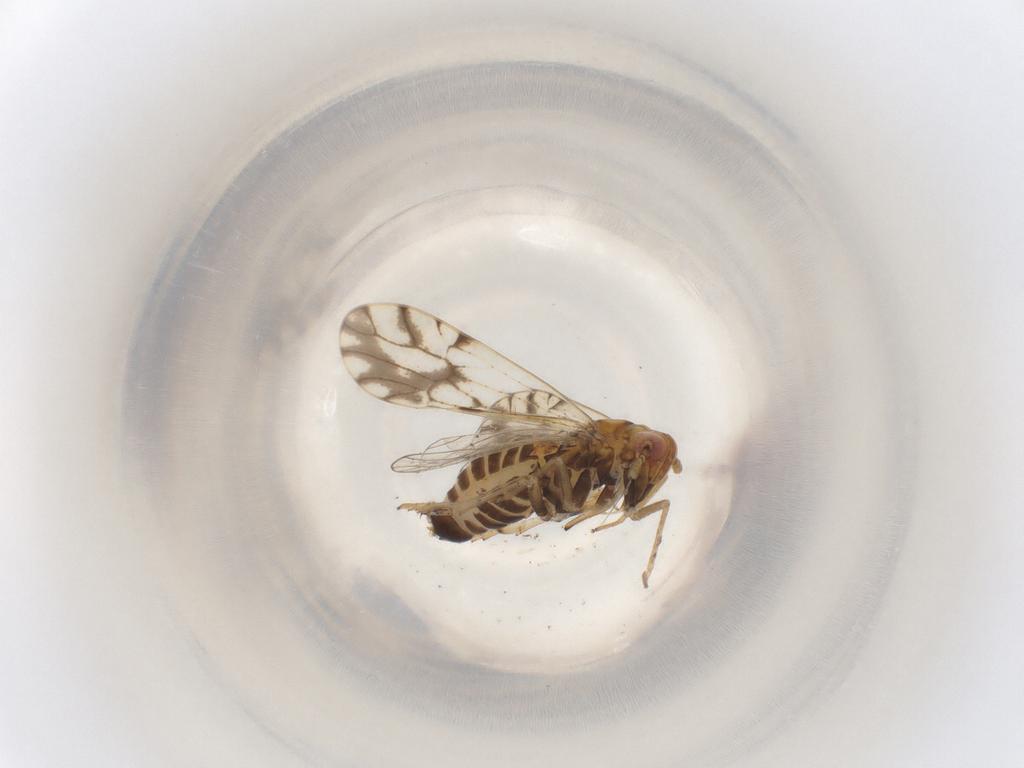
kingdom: Animalia
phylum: Arthropoda
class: Insecta
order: Hemiptera
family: Delphacidae
